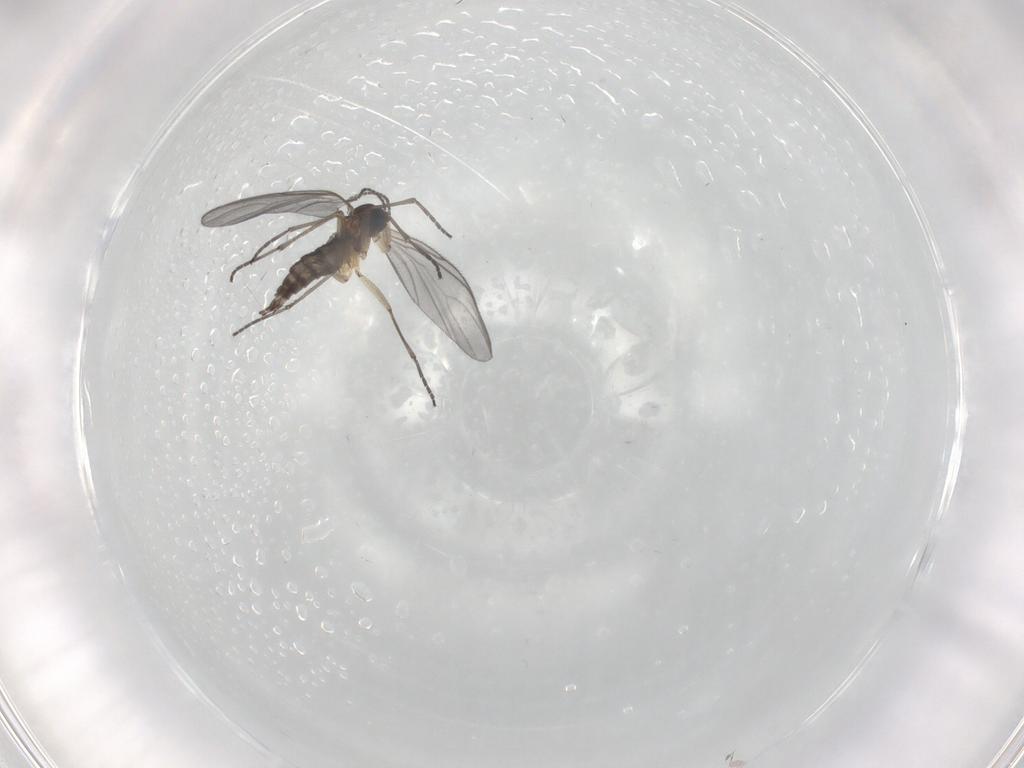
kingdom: Animalia
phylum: Arthropoda
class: Insecta
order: Diptera
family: Sciaridae
